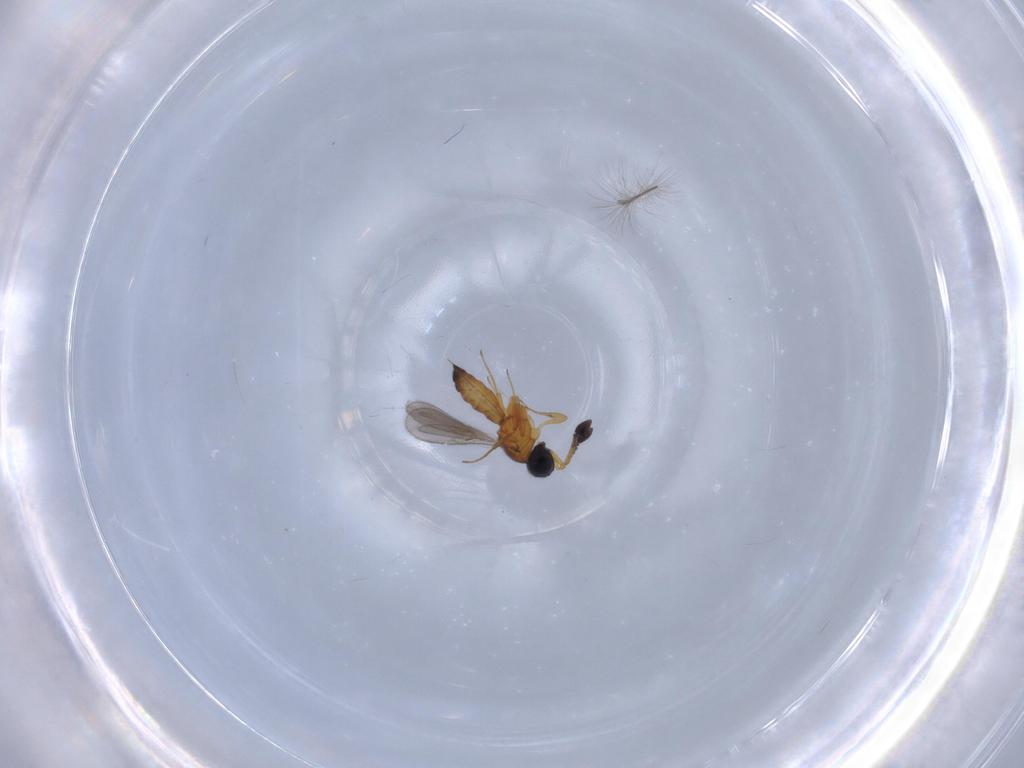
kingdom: Animalia
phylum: Arthropoda
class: Insecta
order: Hymenoptera
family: Scelionidae
